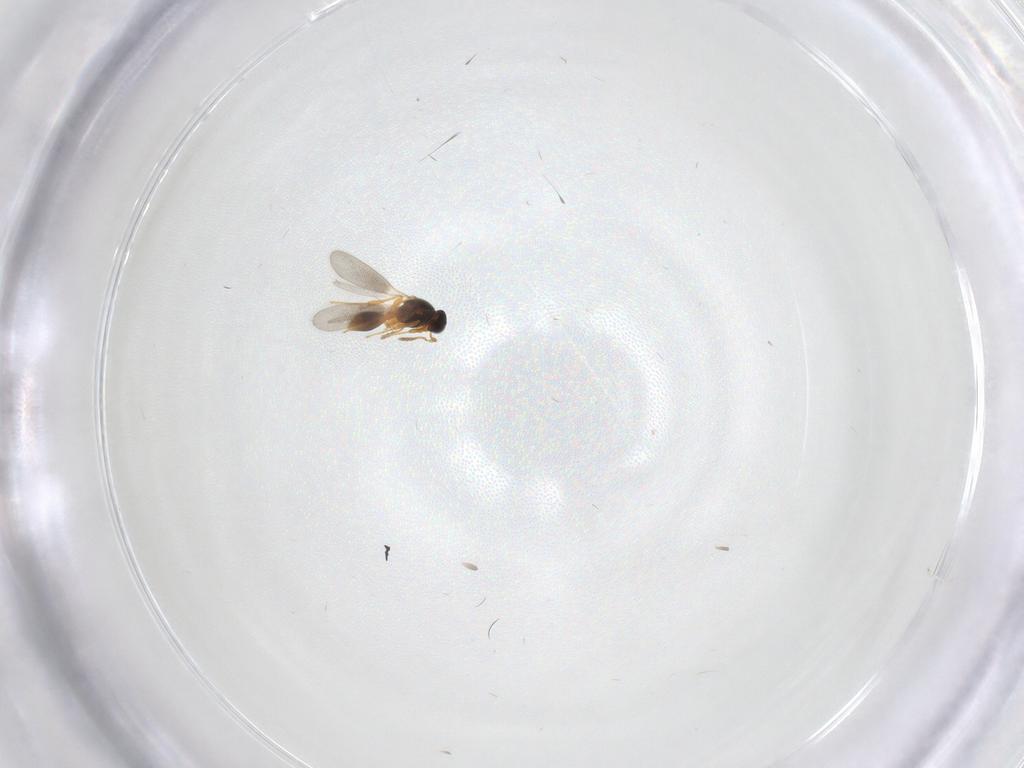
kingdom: Animalia
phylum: Arthropoda
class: Insecta
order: Hymenoptera
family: Platygastridae
